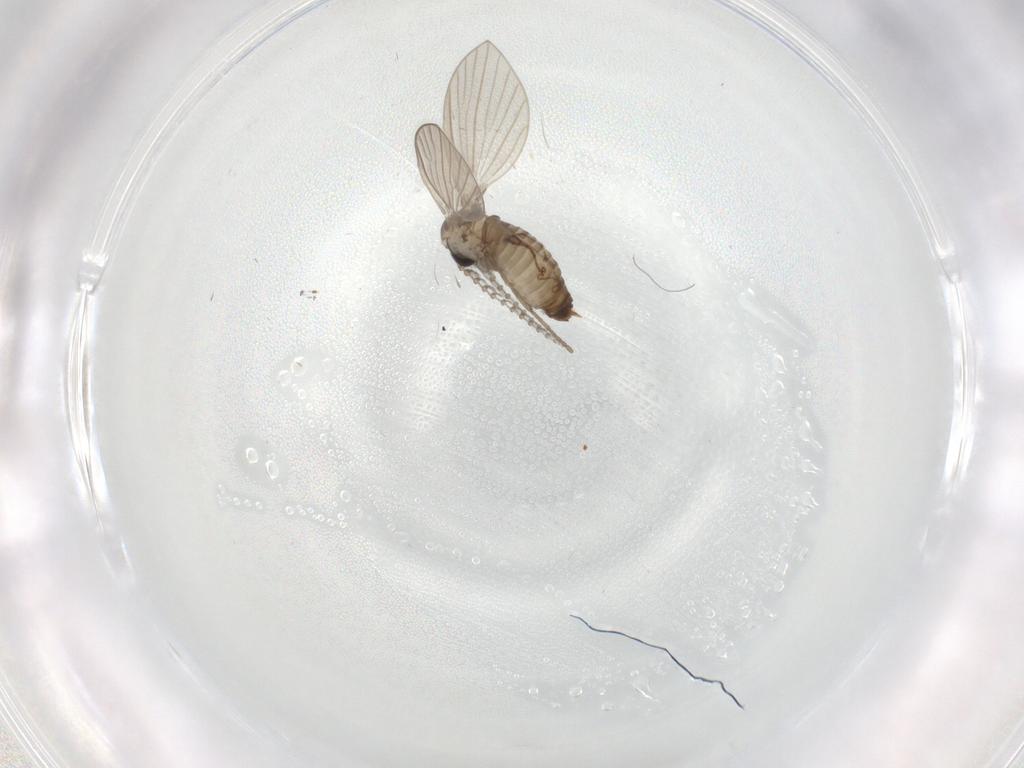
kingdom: Animalia
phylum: Arthropoda
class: Insecta
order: Diptera
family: Psychodidae
